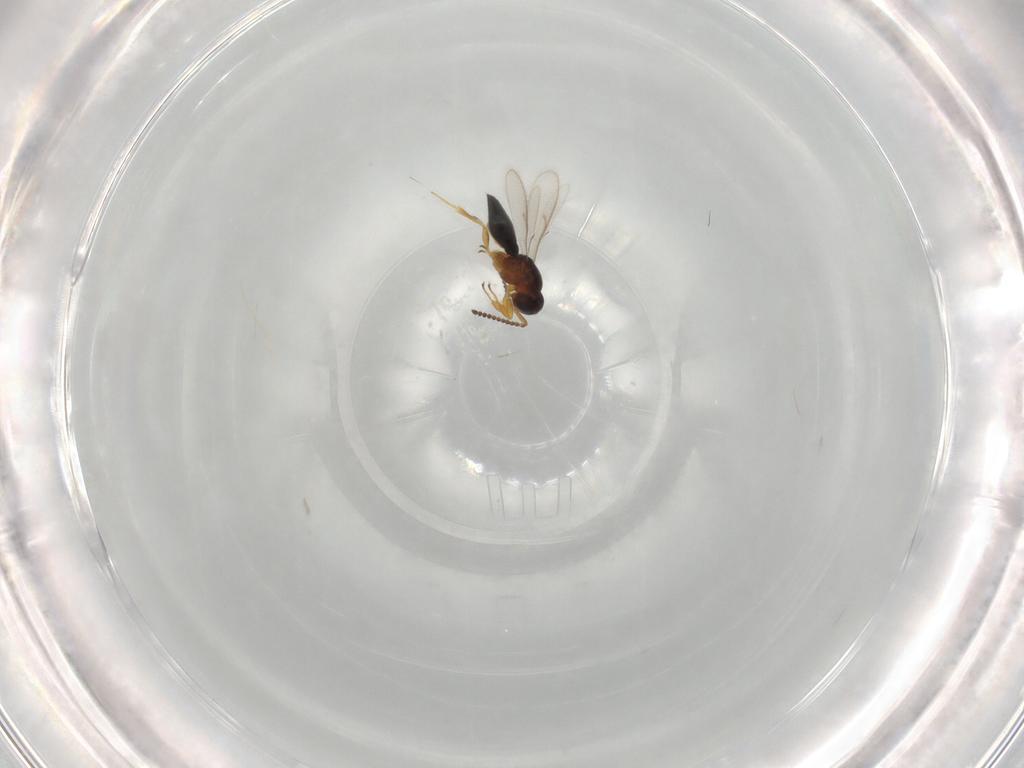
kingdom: Animalia
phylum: Arthropoda
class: Insecta
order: Hymenoptera
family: Scelionidae
